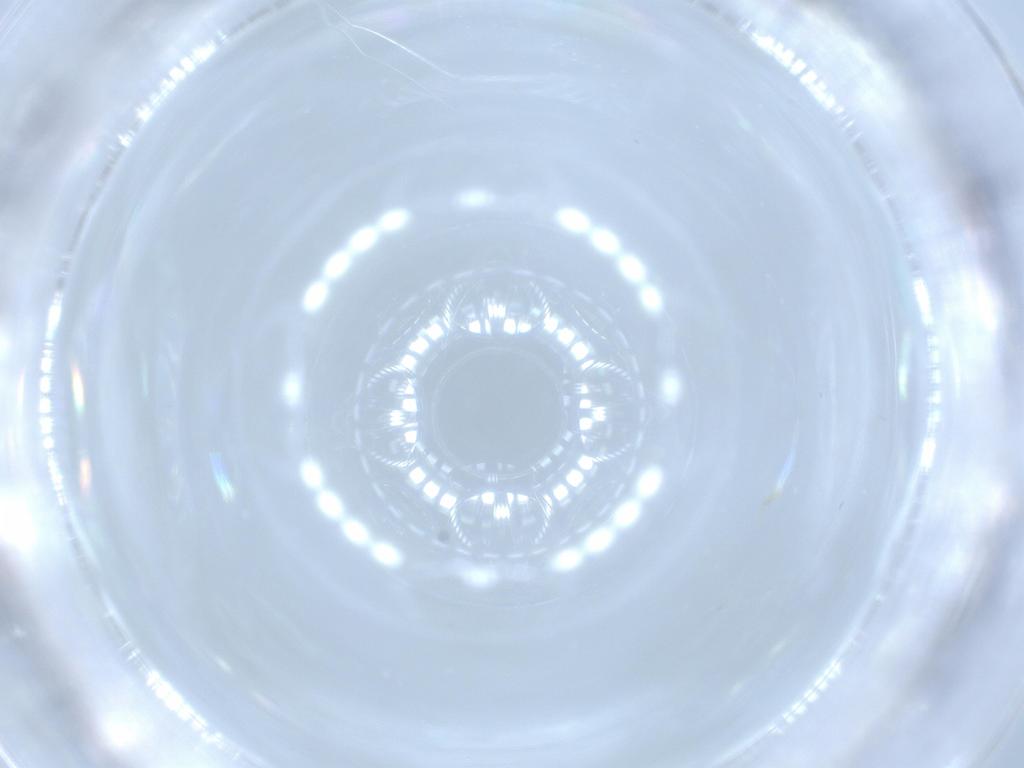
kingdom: Animalia
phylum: Arthropoda
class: Insecta
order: Diptera
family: Cecidomyiidae
